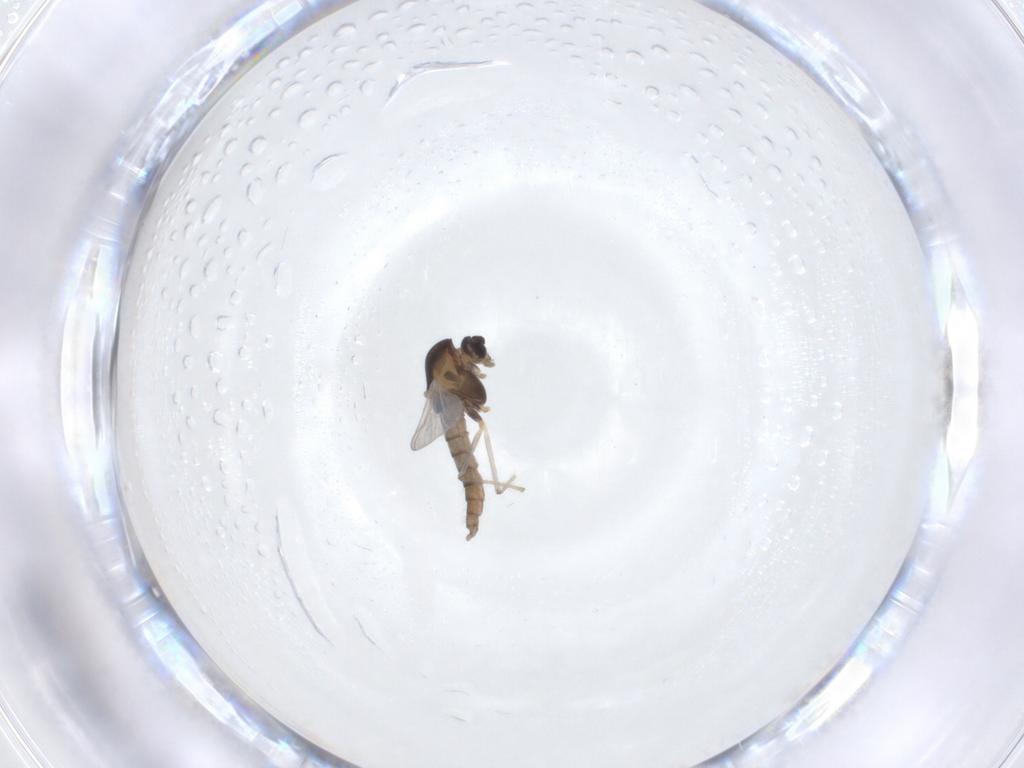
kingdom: Animalia
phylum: Arthropoda
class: Insecta
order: Diptera
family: Chironomidae
